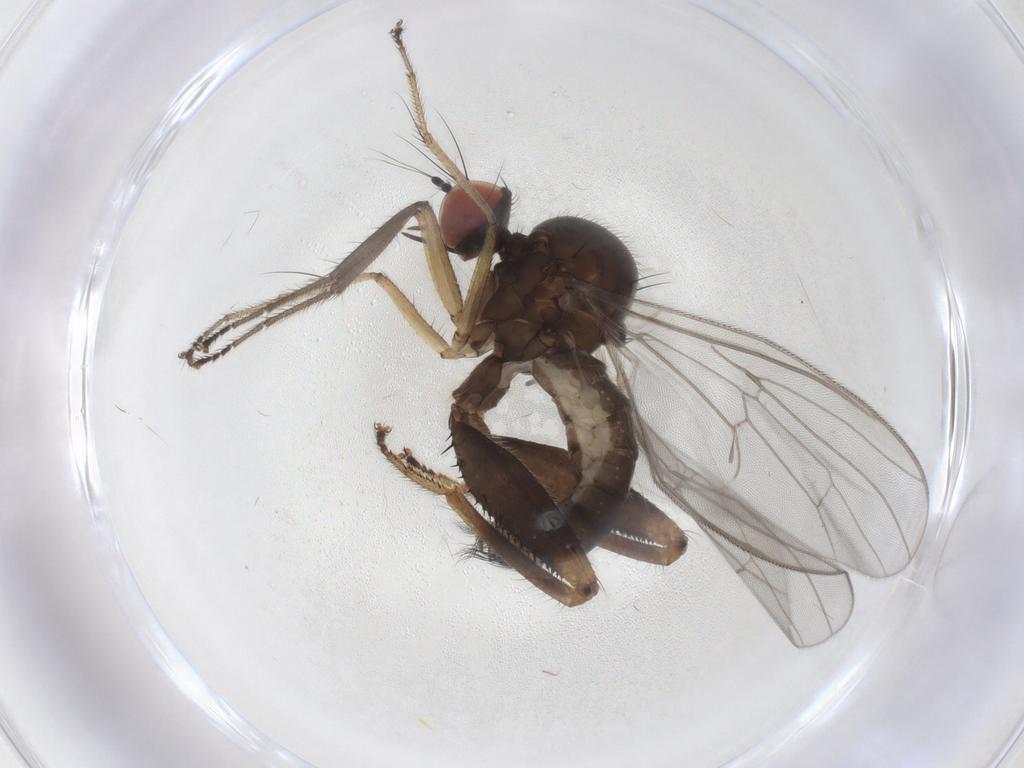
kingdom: Animalia
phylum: Arthropoda
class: Insecta
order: Diptera
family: Hybotidae
